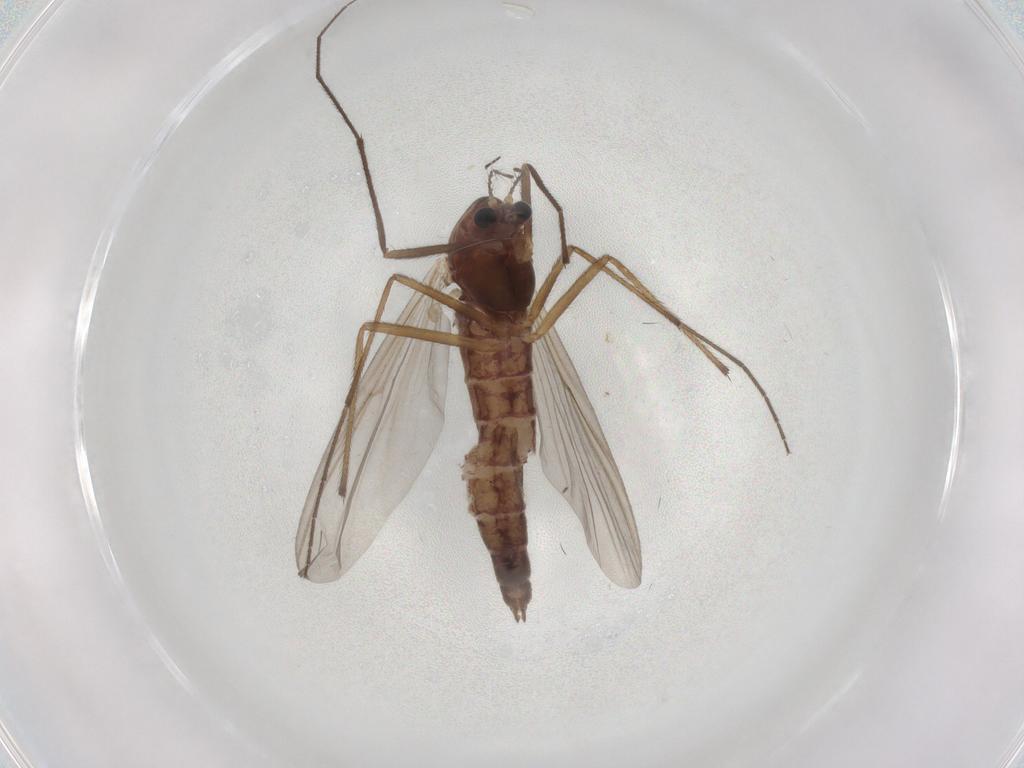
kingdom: Animalia
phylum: Arthropoda
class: Insecta
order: Diptera
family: Chironomidae
